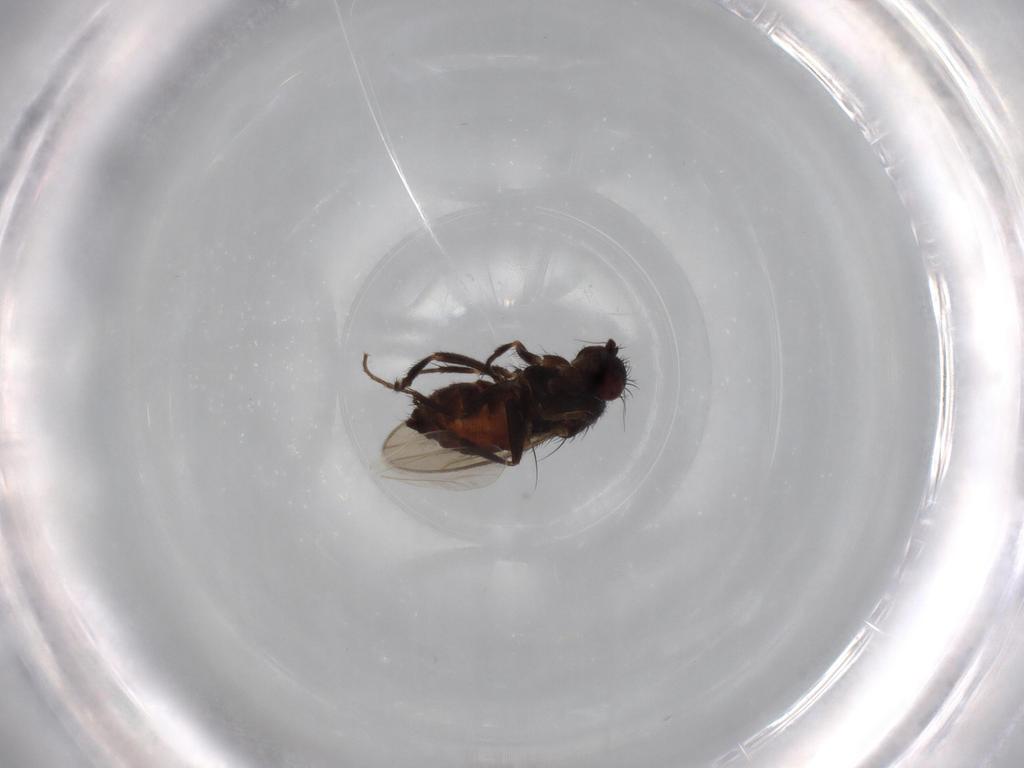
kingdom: Animalia
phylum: Arthropoda
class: Insecta
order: Diptera
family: Sphaeroceridae
